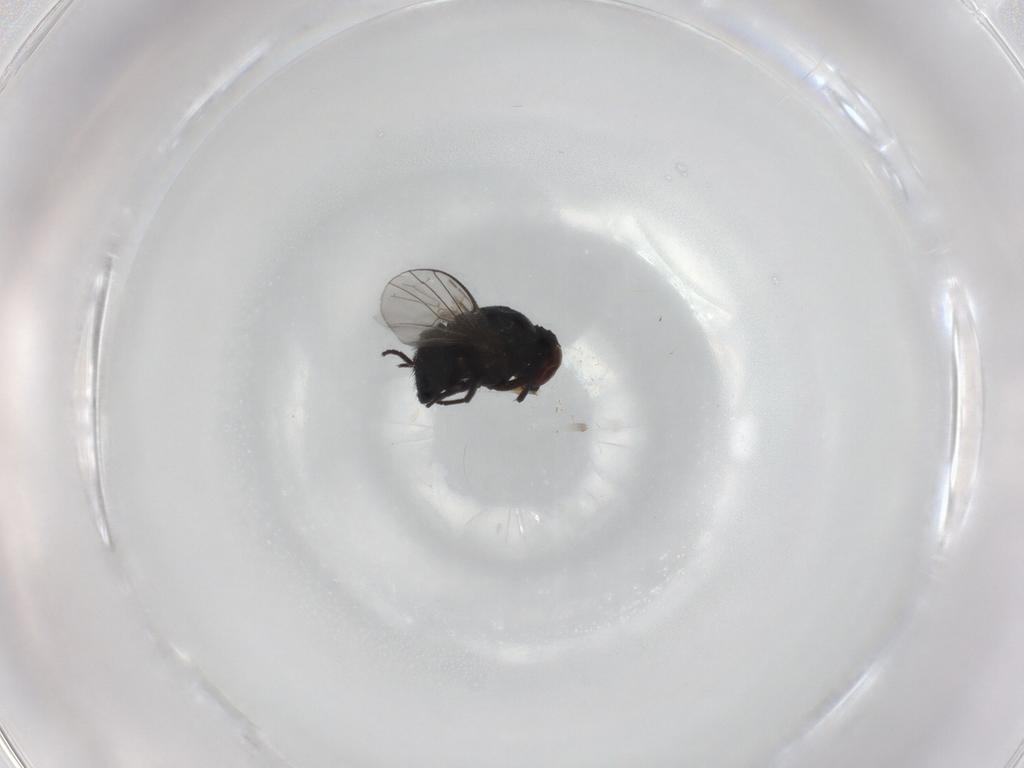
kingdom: Animalia
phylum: Arthropoda
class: Insecta
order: Diptera
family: Agromyzidae
